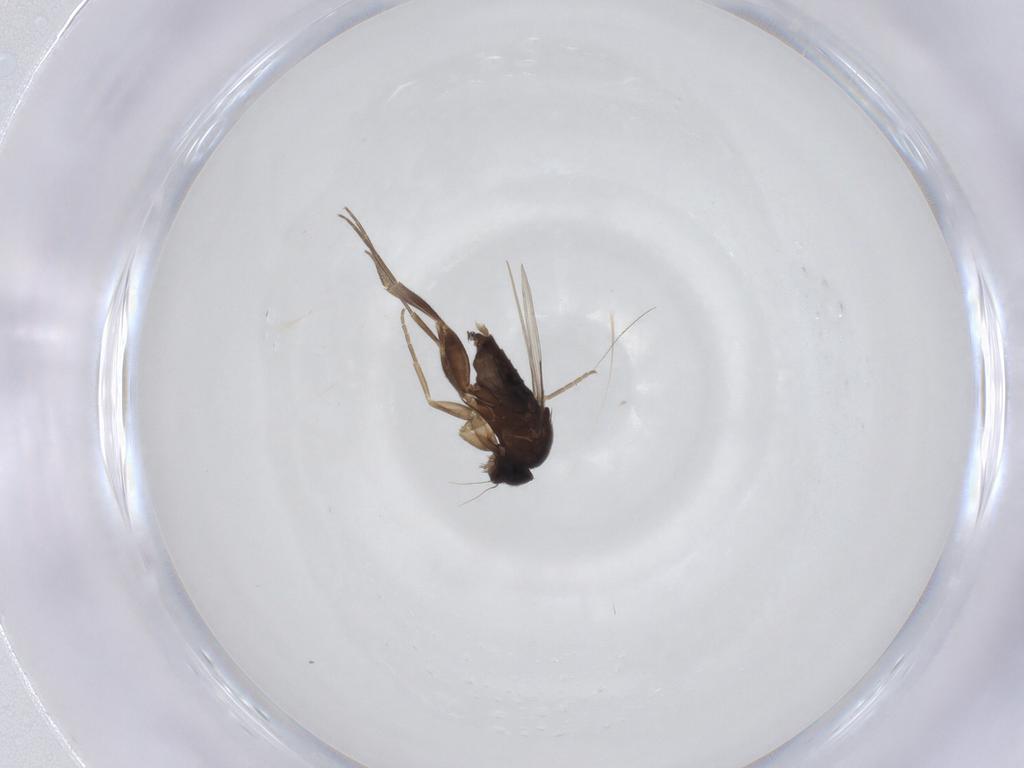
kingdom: Animalia
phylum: Arthropoda
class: Insecta
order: Diptera
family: Phoridae
